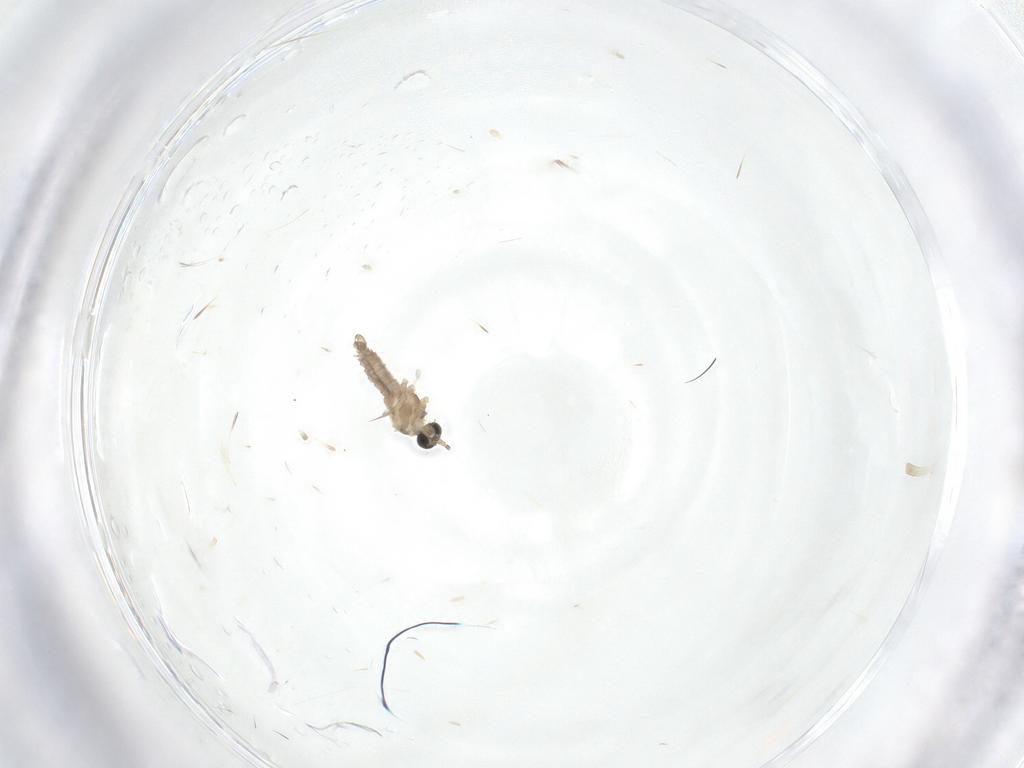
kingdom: Animalia
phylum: Arthropoda
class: Insecta
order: Diptera
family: Cecidomyiidae
